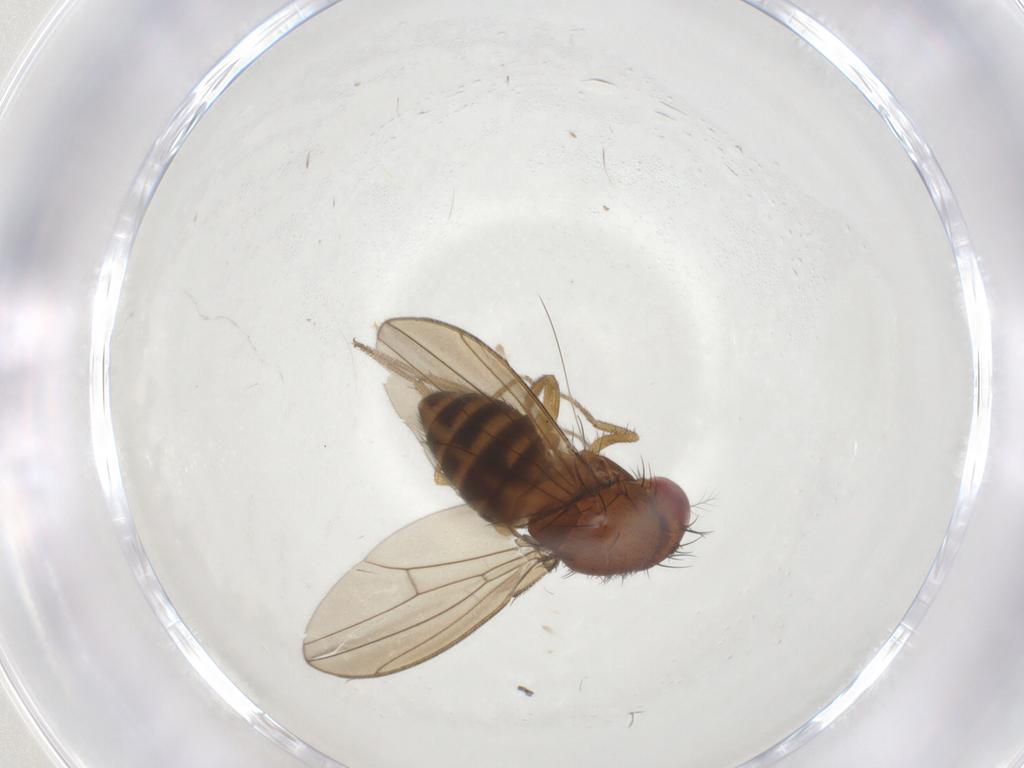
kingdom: Animalia
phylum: Arthropoda
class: Insecta
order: Diptera
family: Drosophilidae
